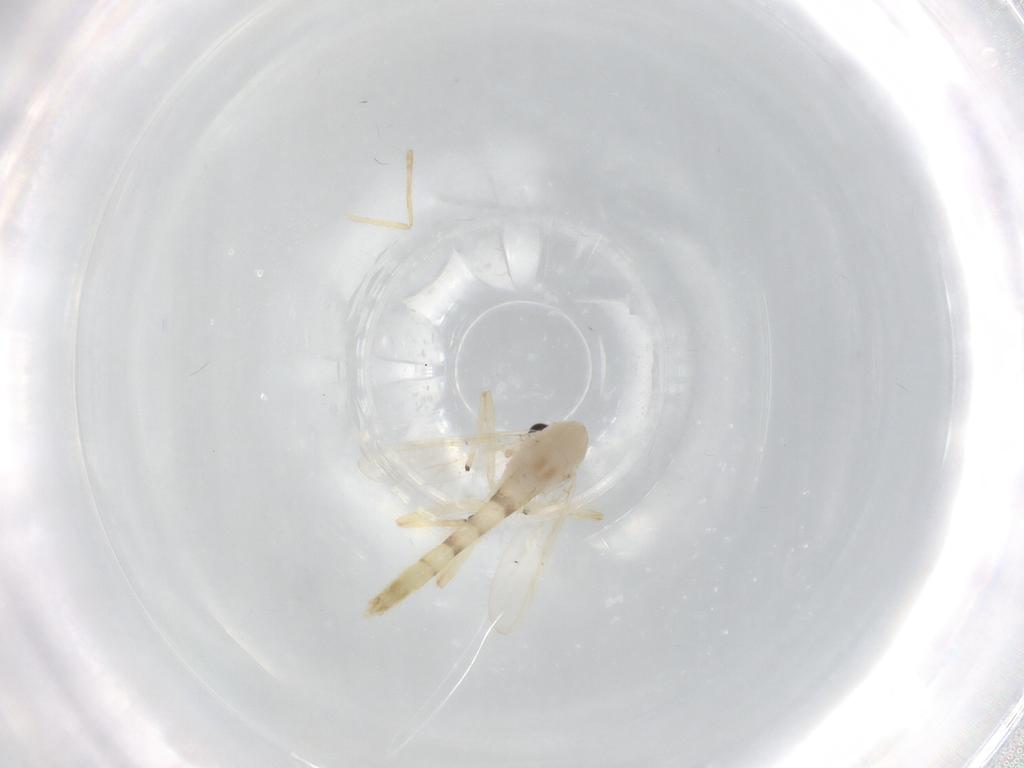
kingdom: Animalia
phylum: Arthropoda
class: Insecta
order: Diptera
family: Chironomidae
